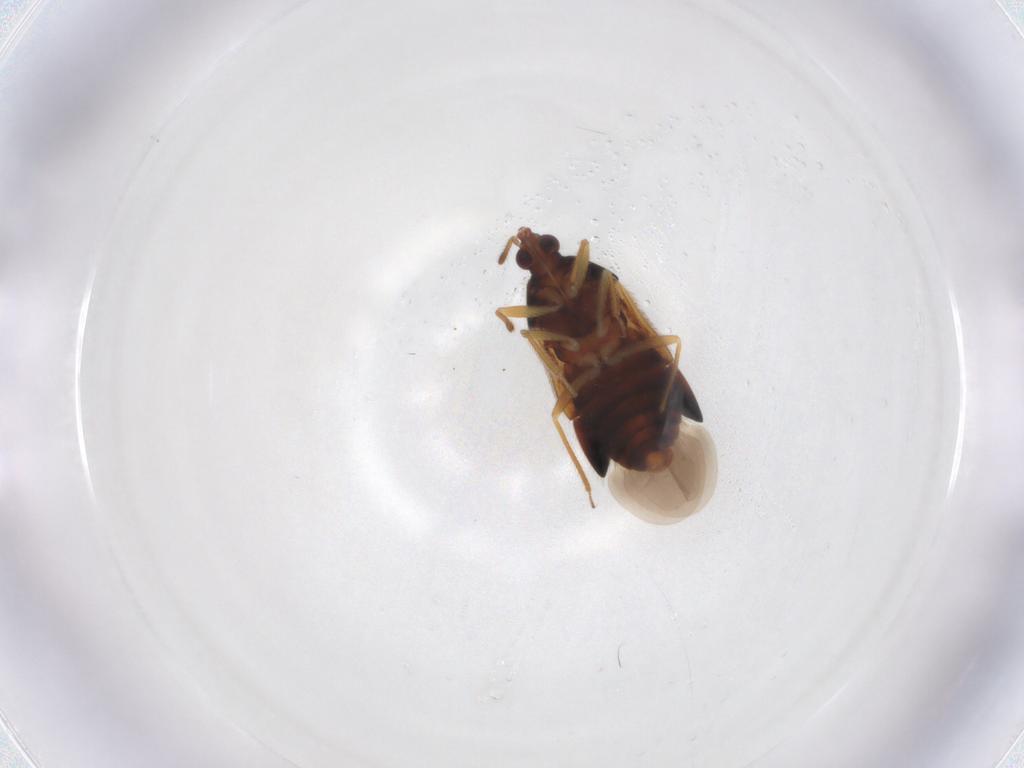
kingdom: Animalia
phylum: Arthropoda
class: Insecta
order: Hemiptera
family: Anthocoridae
